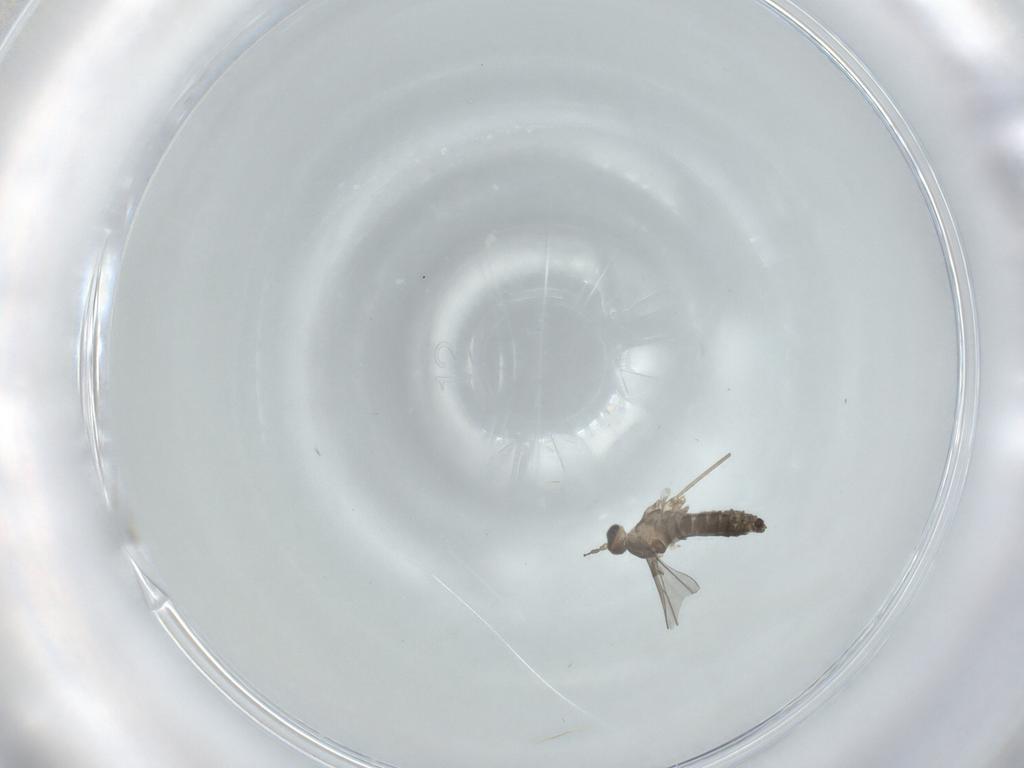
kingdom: Animalia
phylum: Arthropoda
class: Insecta
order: Diptera
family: Cecidomyiidae
